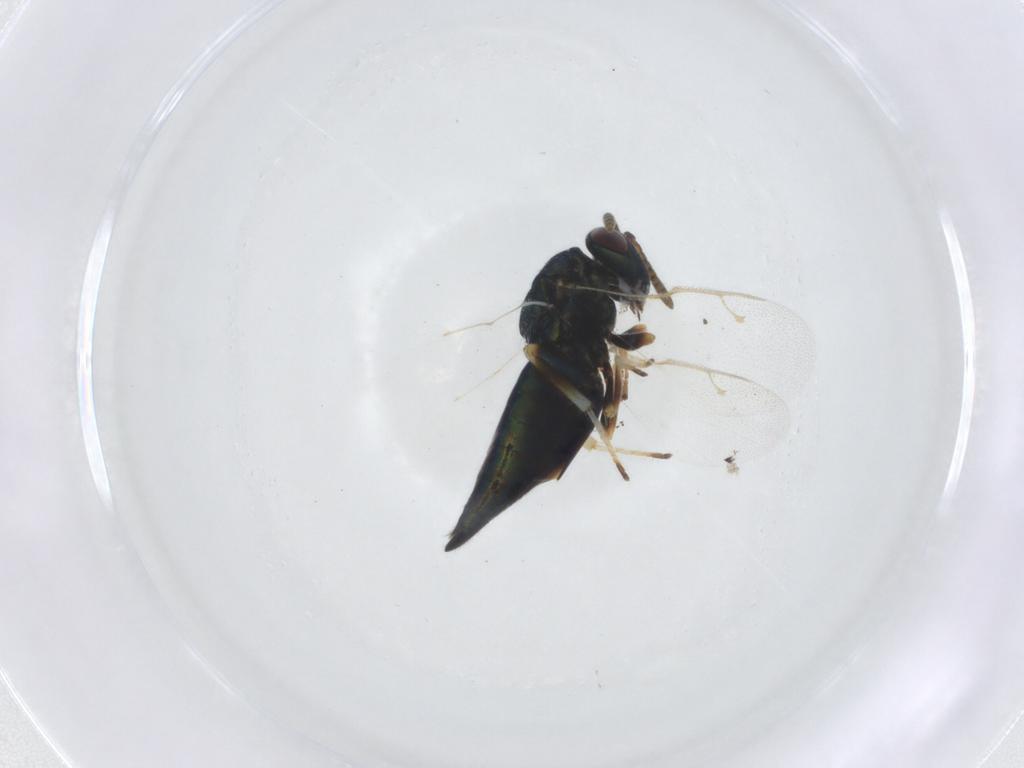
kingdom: Animalia
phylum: Arthropoda
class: Insecta
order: Hymenoptera
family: Pteromalidae
